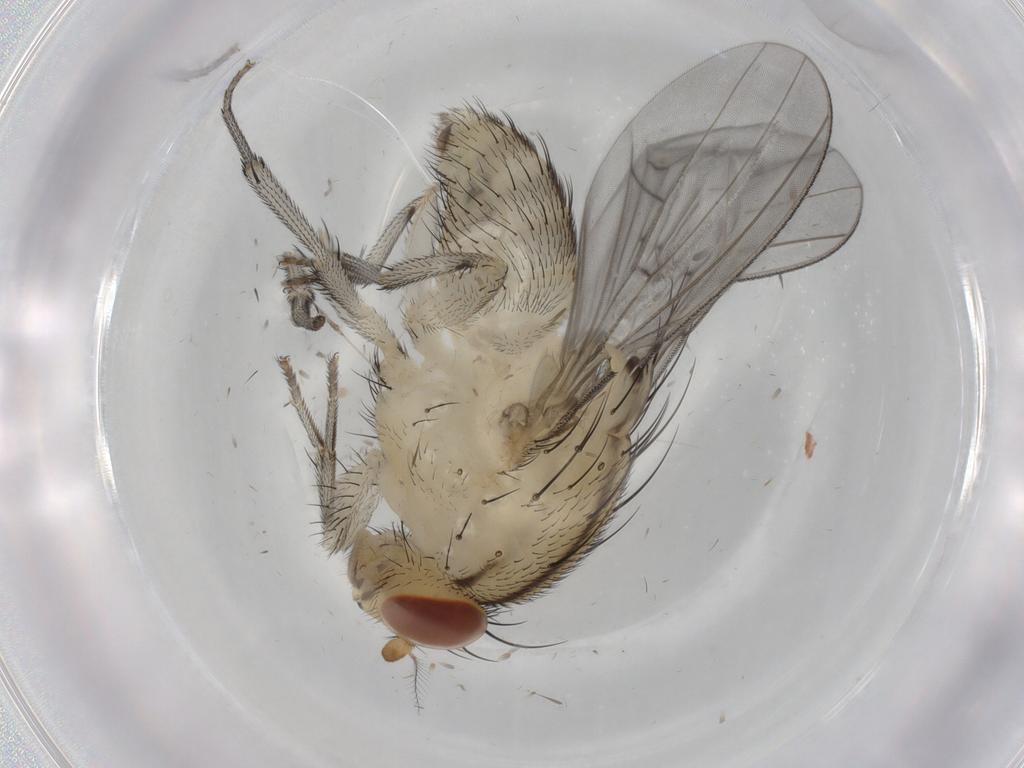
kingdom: Animalia
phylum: Arthropoda
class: Insecta
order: Diptera
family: Lauxaniidae
